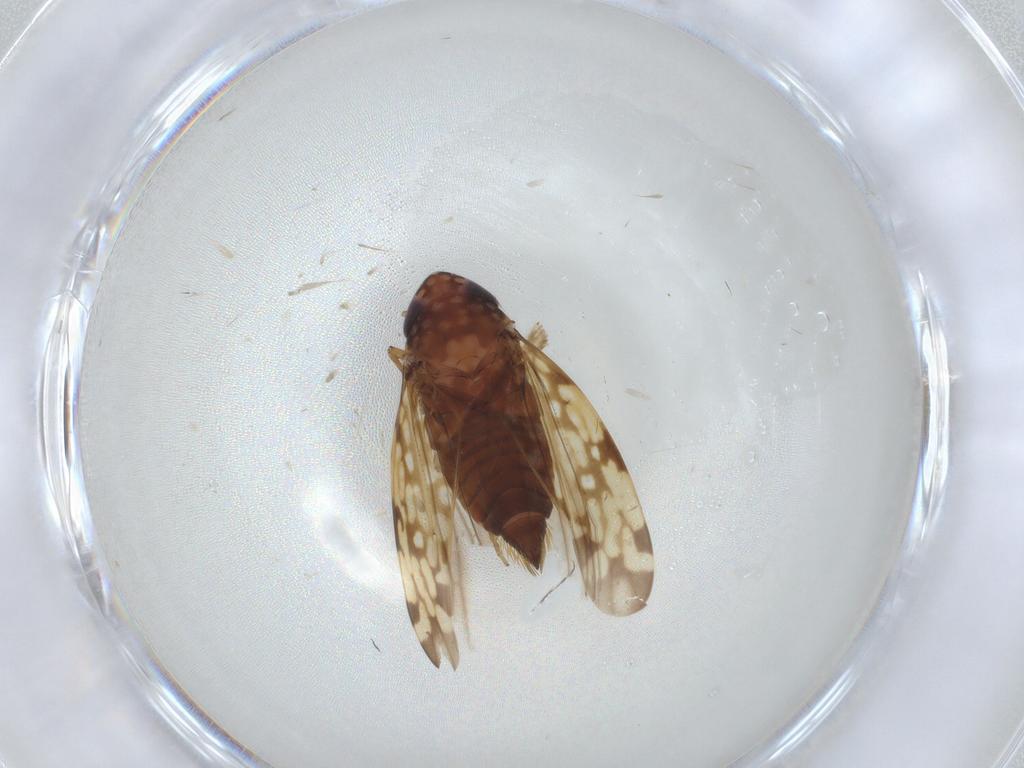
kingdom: Animalia
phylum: Arthropoda
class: Insecta
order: Hemiptera
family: Cicadellidae
